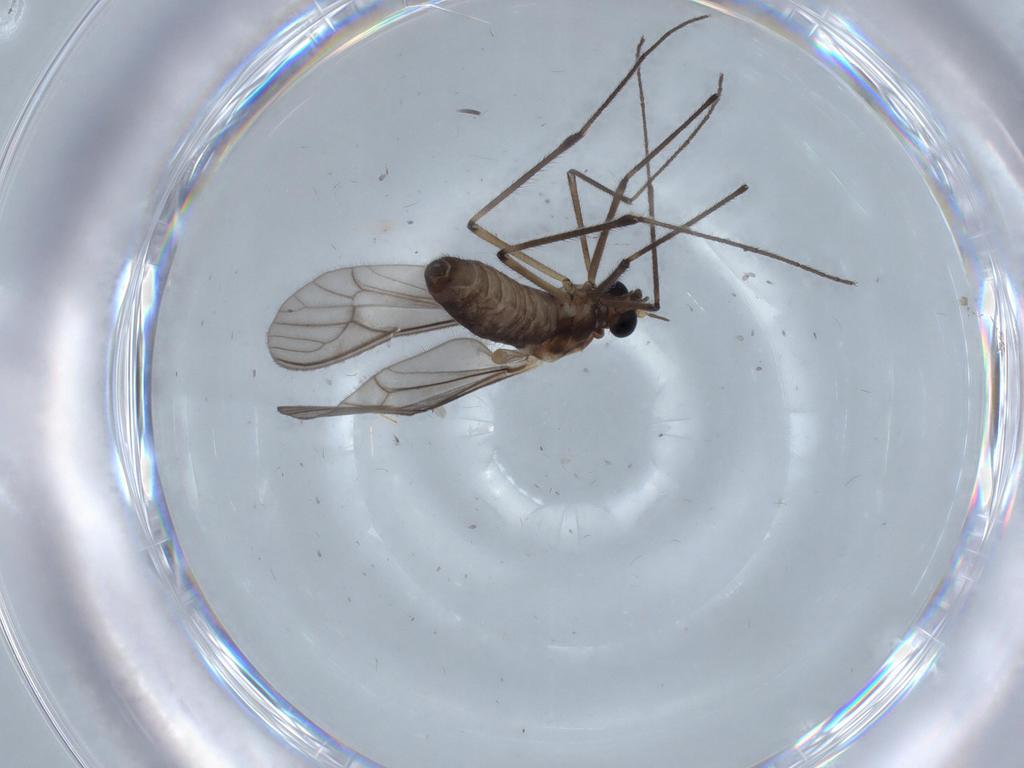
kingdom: Animalia
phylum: Arthropoda
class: Insecta
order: Diptera
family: Dixidae
